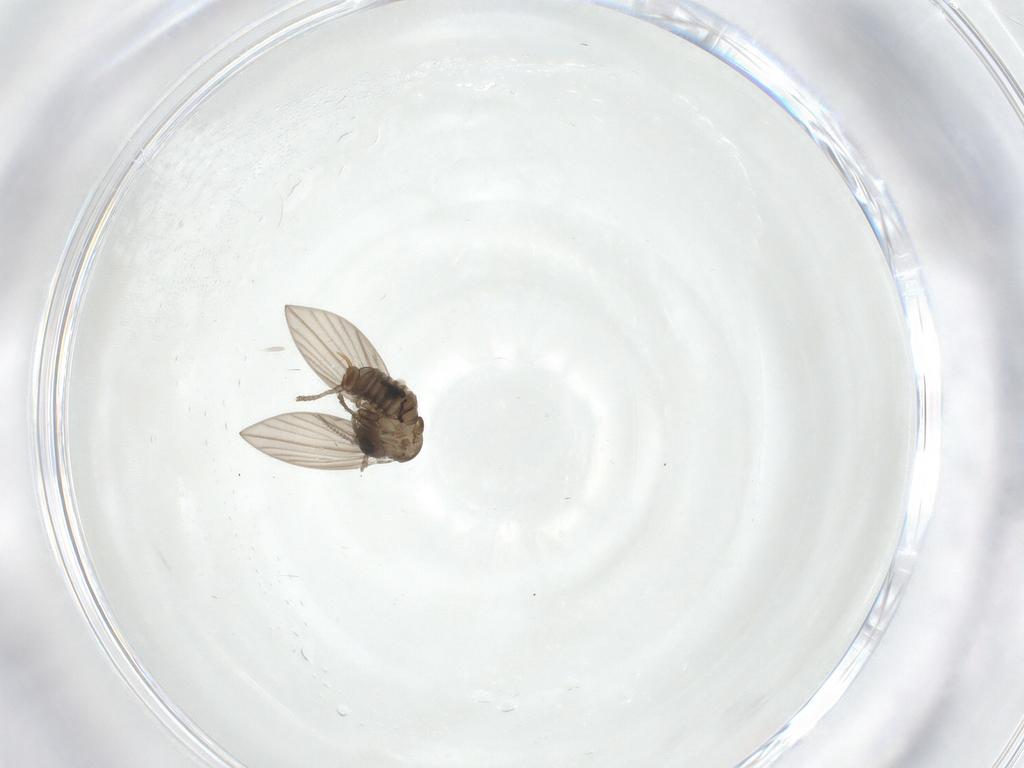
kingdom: Animalia
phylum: Arthropoda
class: Insecta
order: Diptera
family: Psychodidae
